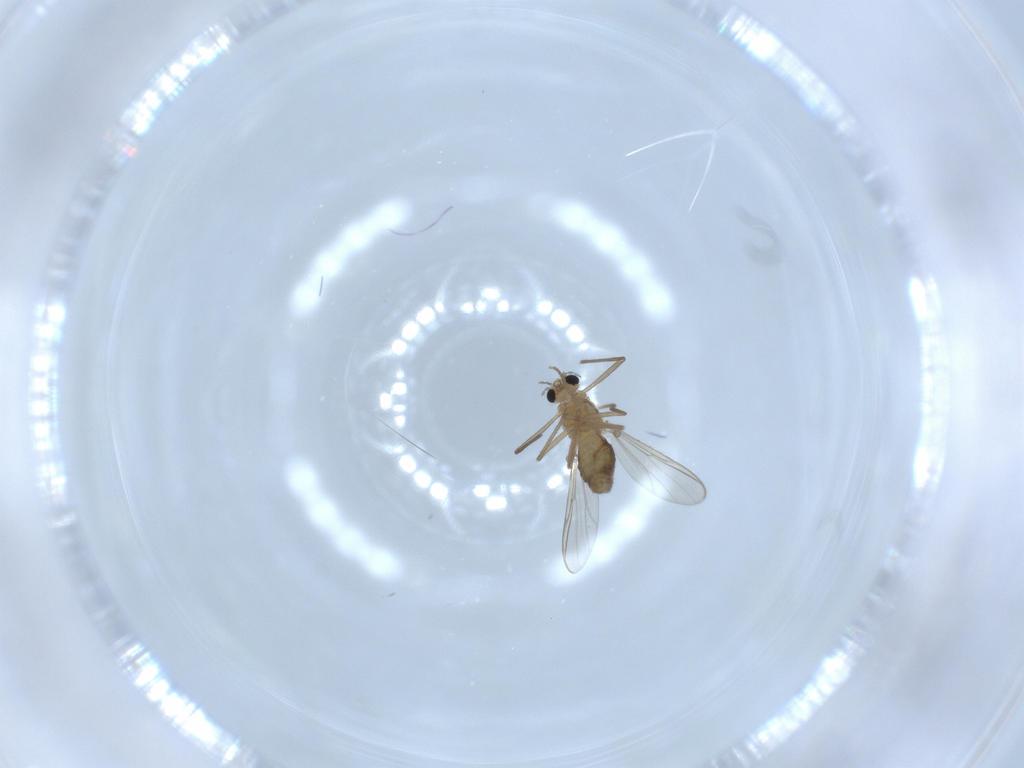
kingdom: Animalia
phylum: Arthropoda
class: Insecta
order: Diptera
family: Chironomidae
